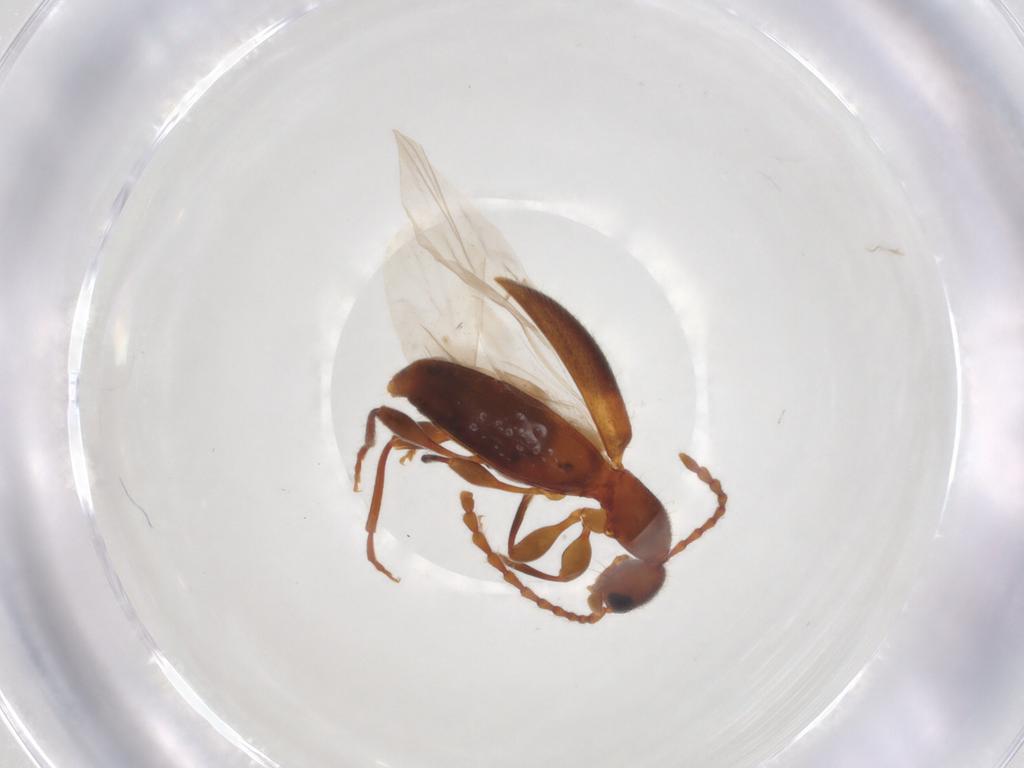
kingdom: Animalia
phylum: Arthropoda
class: Insecta
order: Coleoptera
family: Anthicidae
